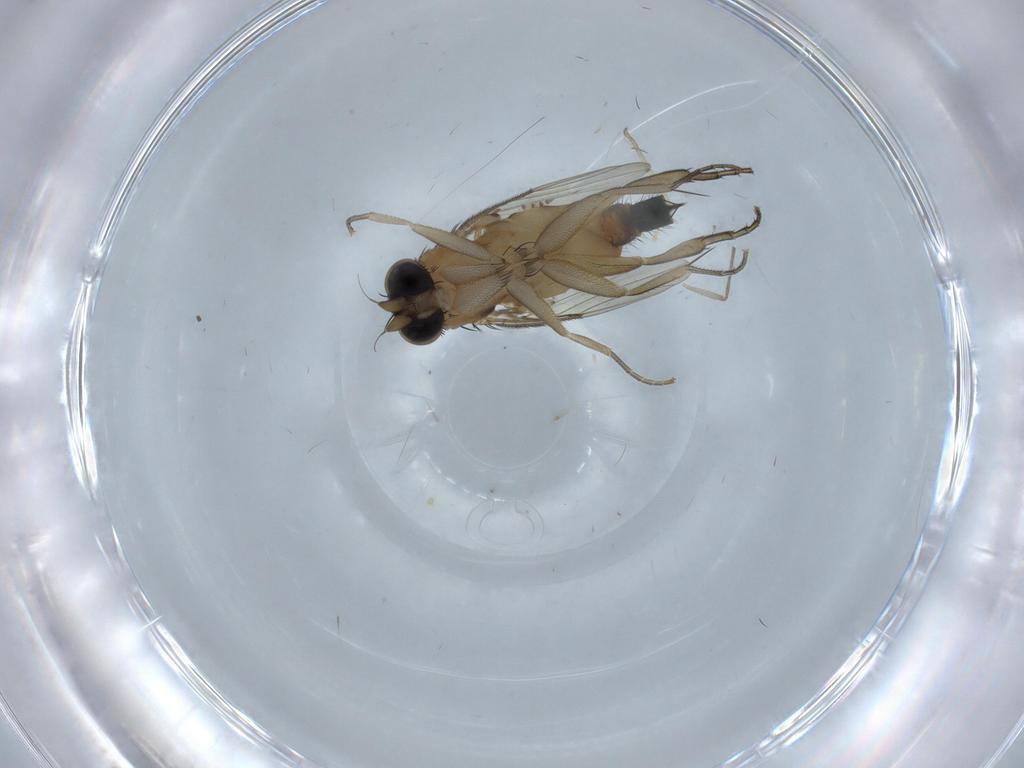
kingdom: Animalia
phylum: Arthropoda
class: Insecta
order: Diptera
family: Phoridae
